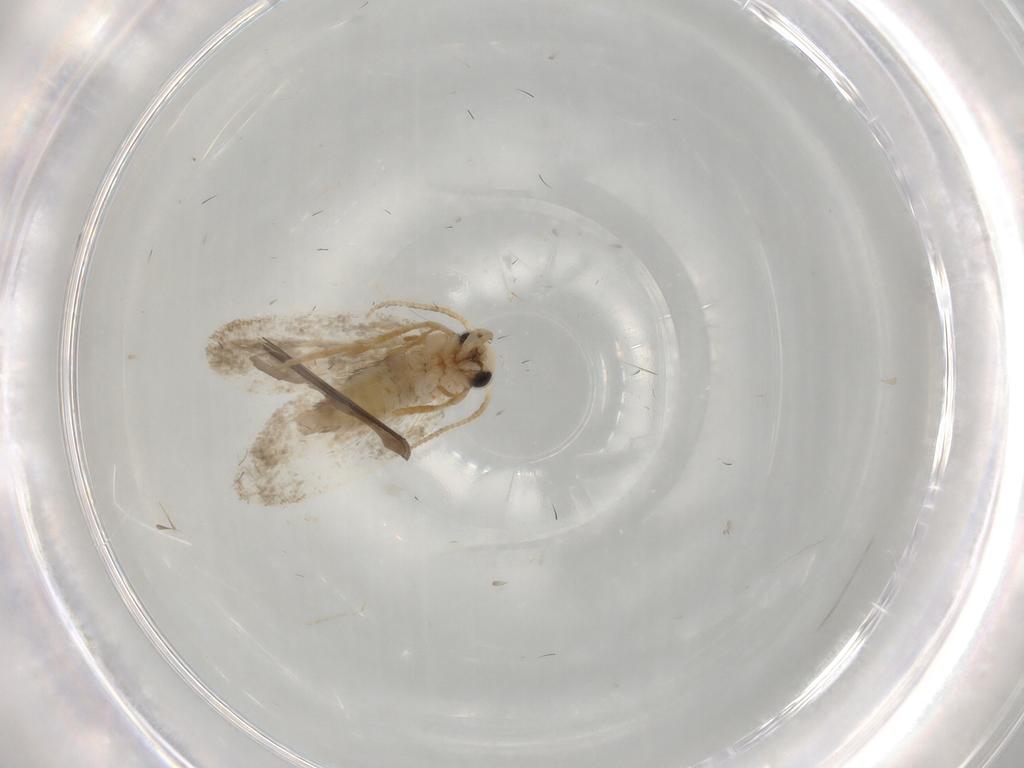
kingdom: Animalia
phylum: Arthropoda
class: Insecta
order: Lepidoptera
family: Psychidae
